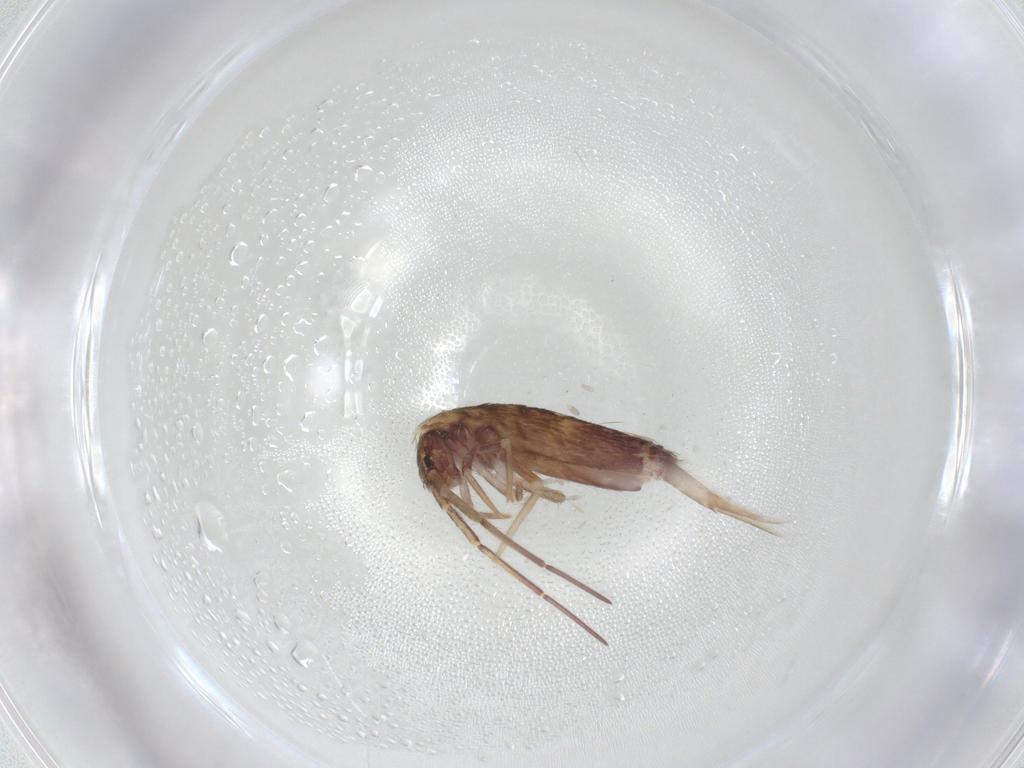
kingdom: Animalia
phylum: Arthropoda
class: Collembola
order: Entomobryomorpha
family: Entomobryidae
